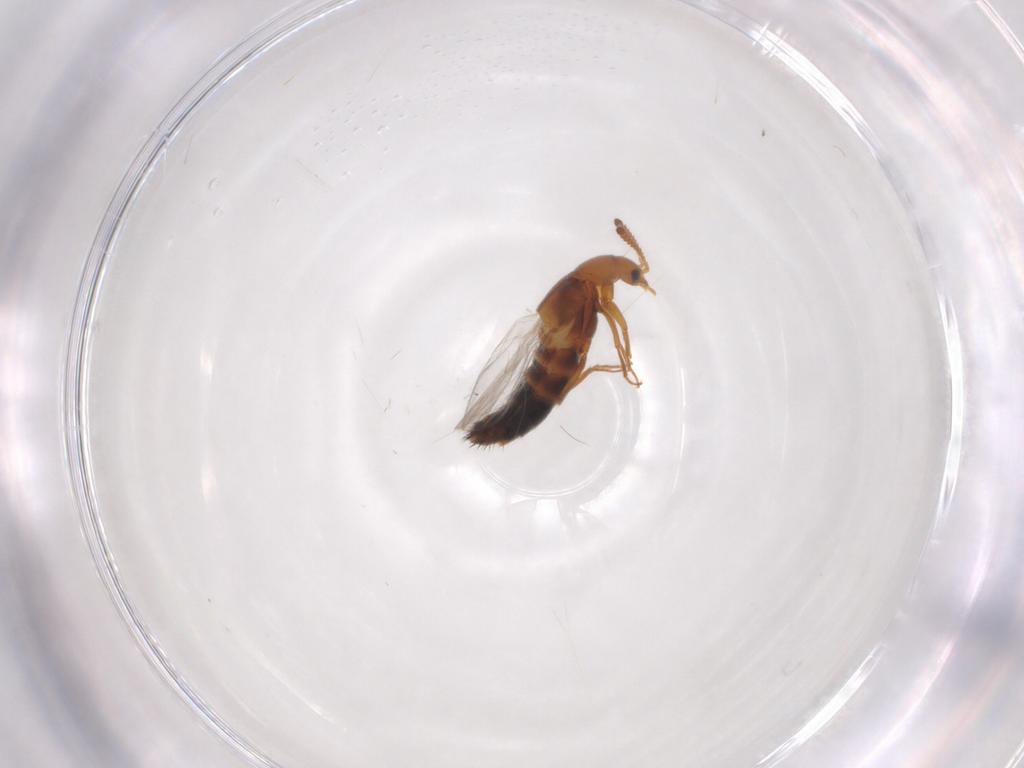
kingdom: Animalia
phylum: Arthropoda
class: Insecta
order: Coleoptera
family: Staphylinidae
